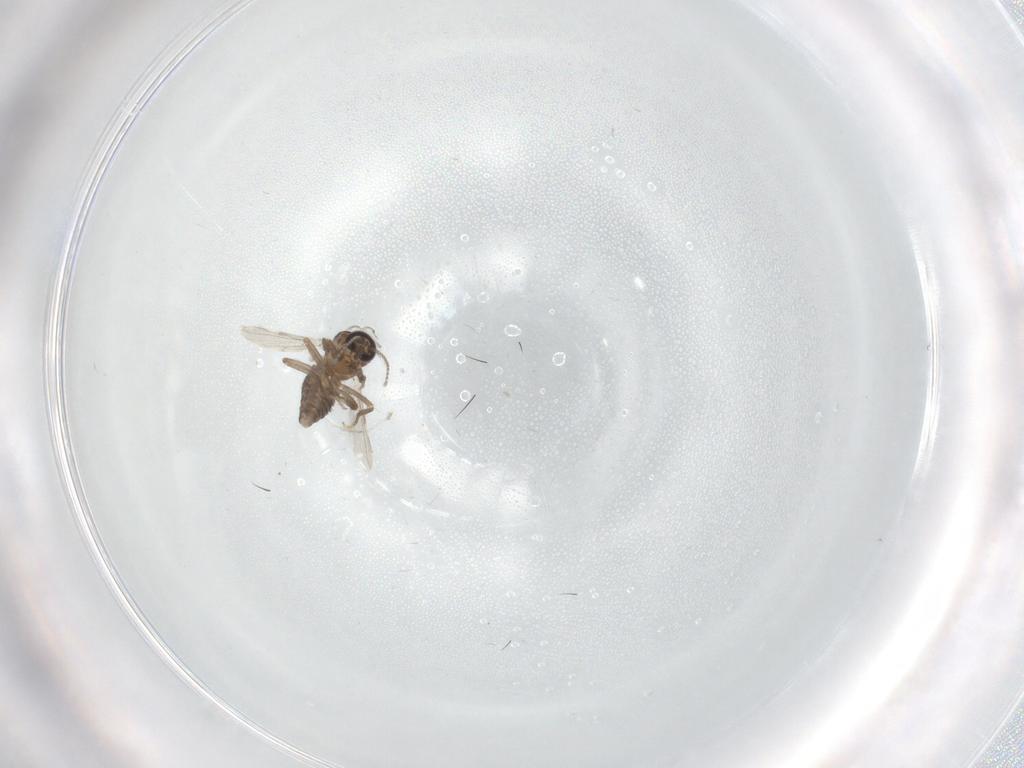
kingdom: Animalia
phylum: Arthropoda
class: Insecta
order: Diptera
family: Ceratopogonidae
